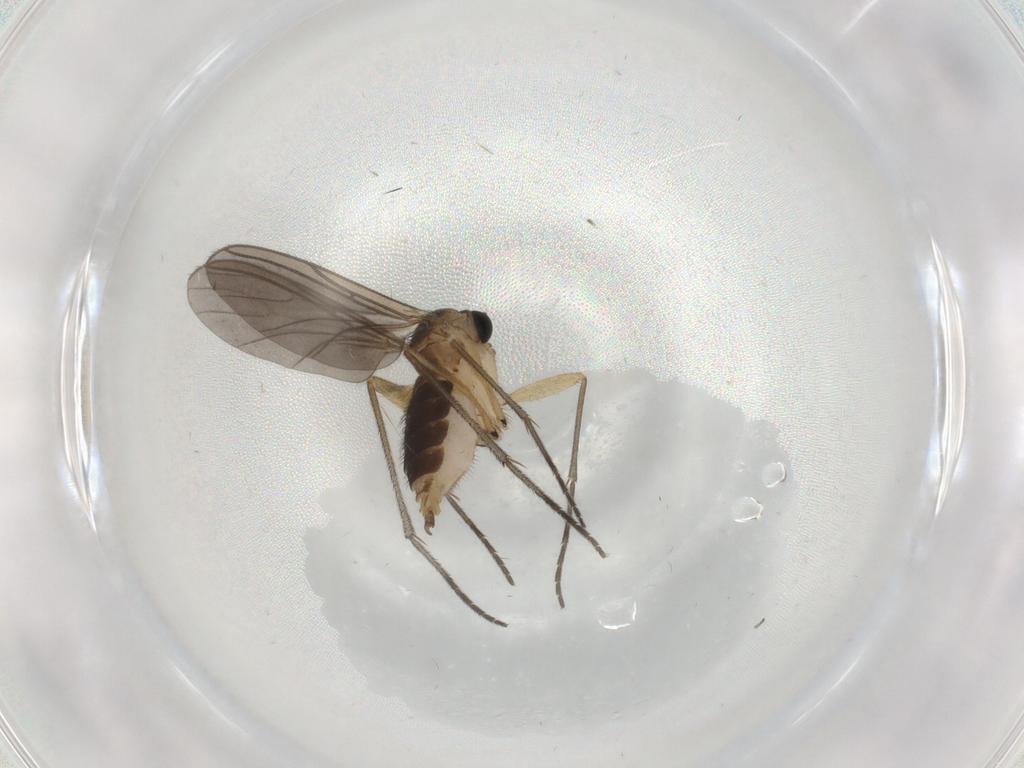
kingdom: Animalia
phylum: Arthropoda
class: Insecta
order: Diptera
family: Sciaridae
